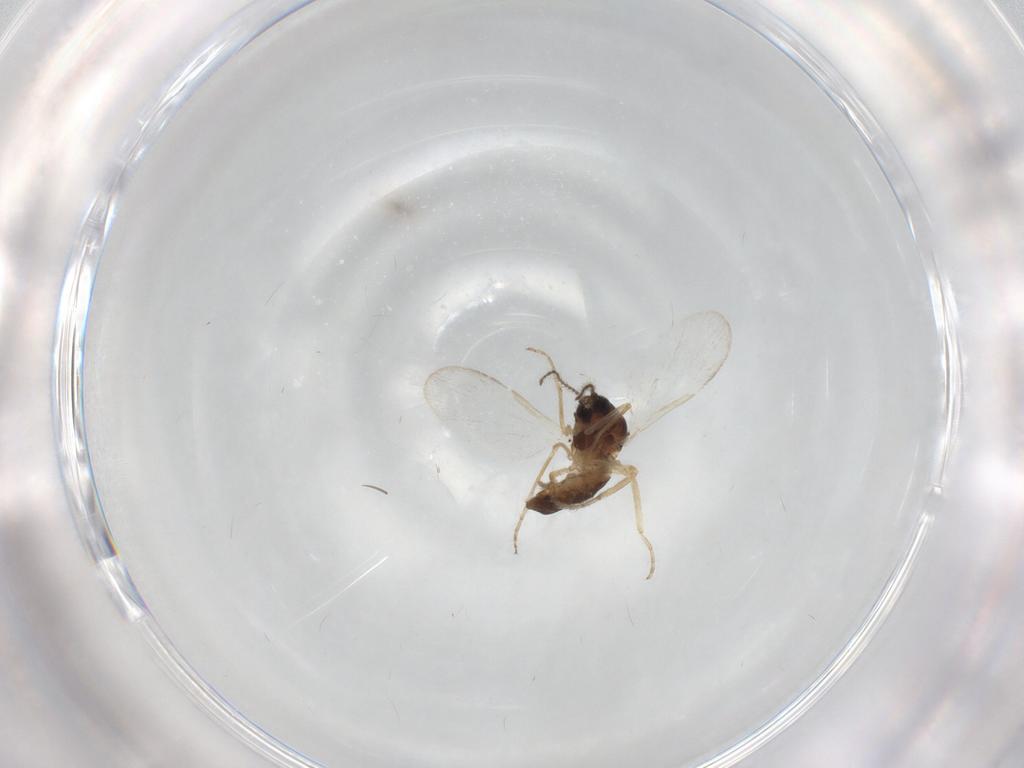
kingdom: Animalia
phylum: Arthropoda
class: Insecta
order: Diptera
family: Ceratopogonidae
